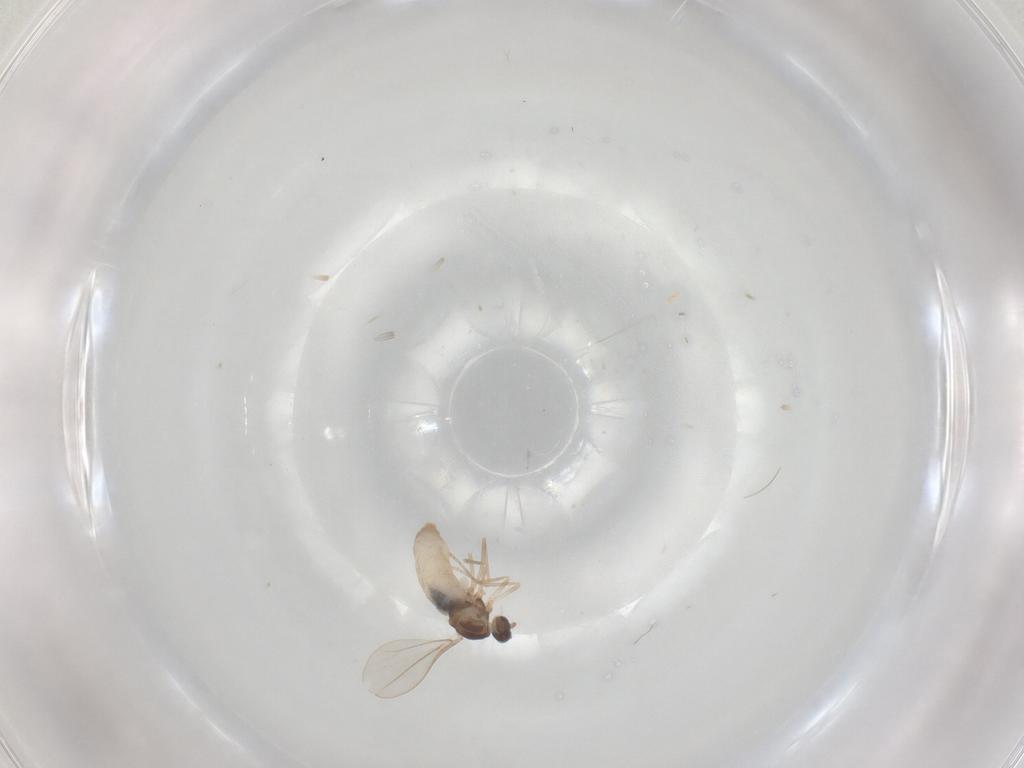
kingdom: Animalia
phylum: Arthropoda
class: Insecta
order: Diptera
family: Cecidomyiidae
